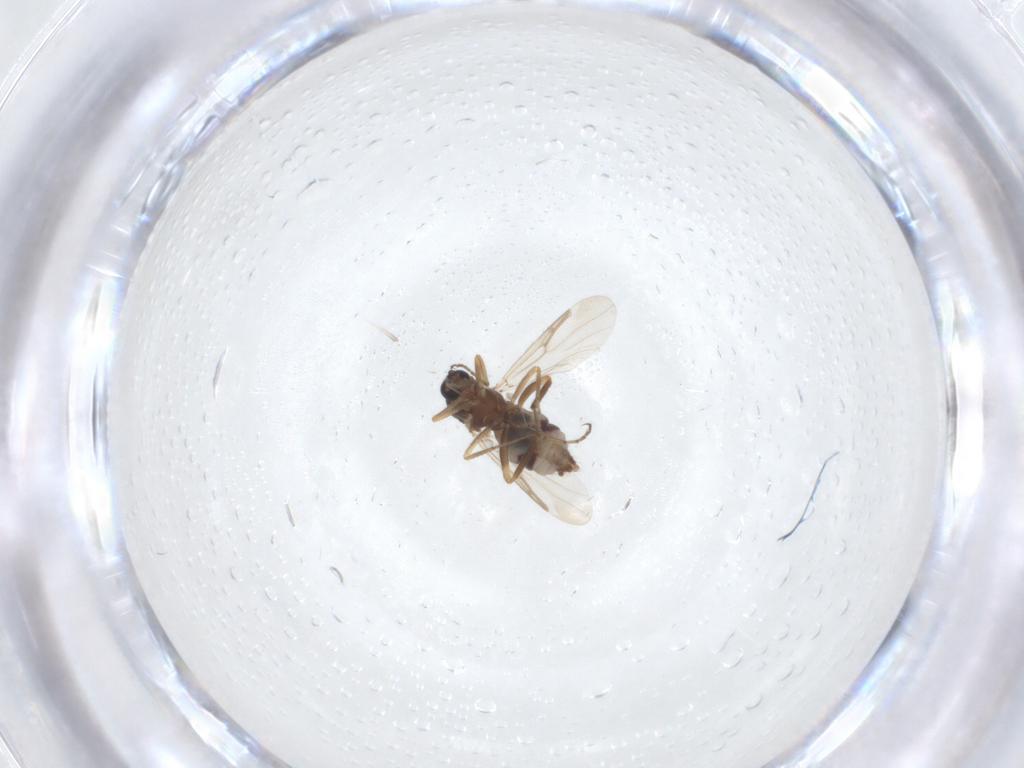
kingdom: Animalia
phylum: Arthropoda
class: Insecta
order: Diptera
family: Ceratopogonidae
